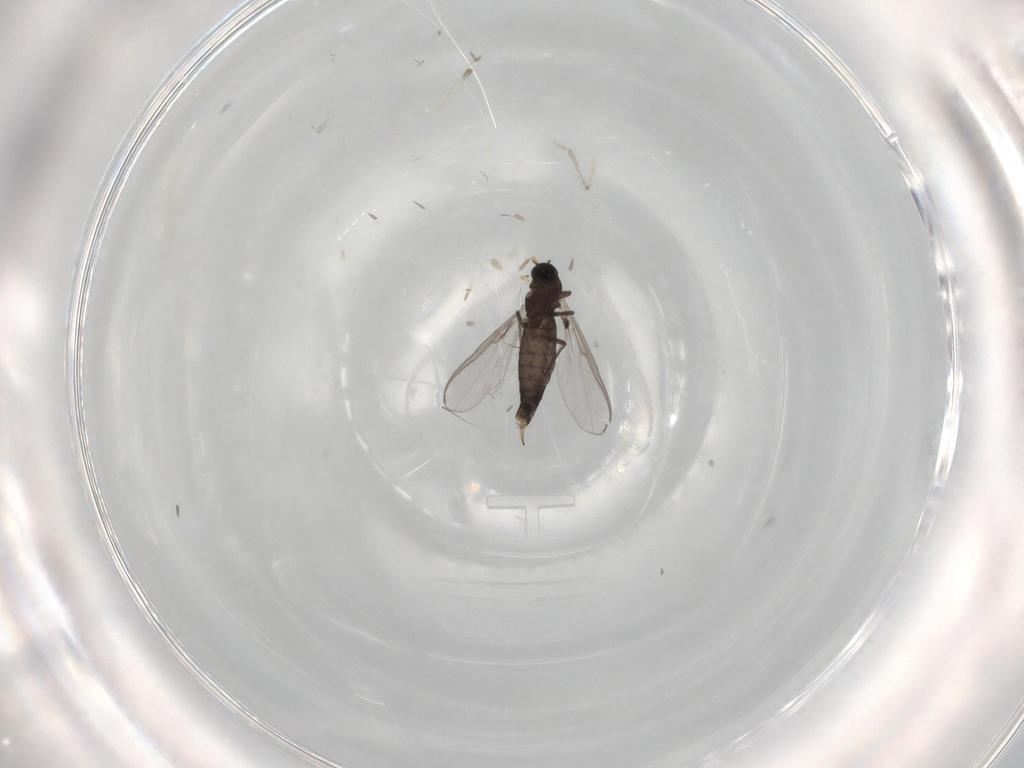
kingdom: Animalia
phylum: Arthropoda
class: Insecta
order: Diptera
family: Chironomidae
